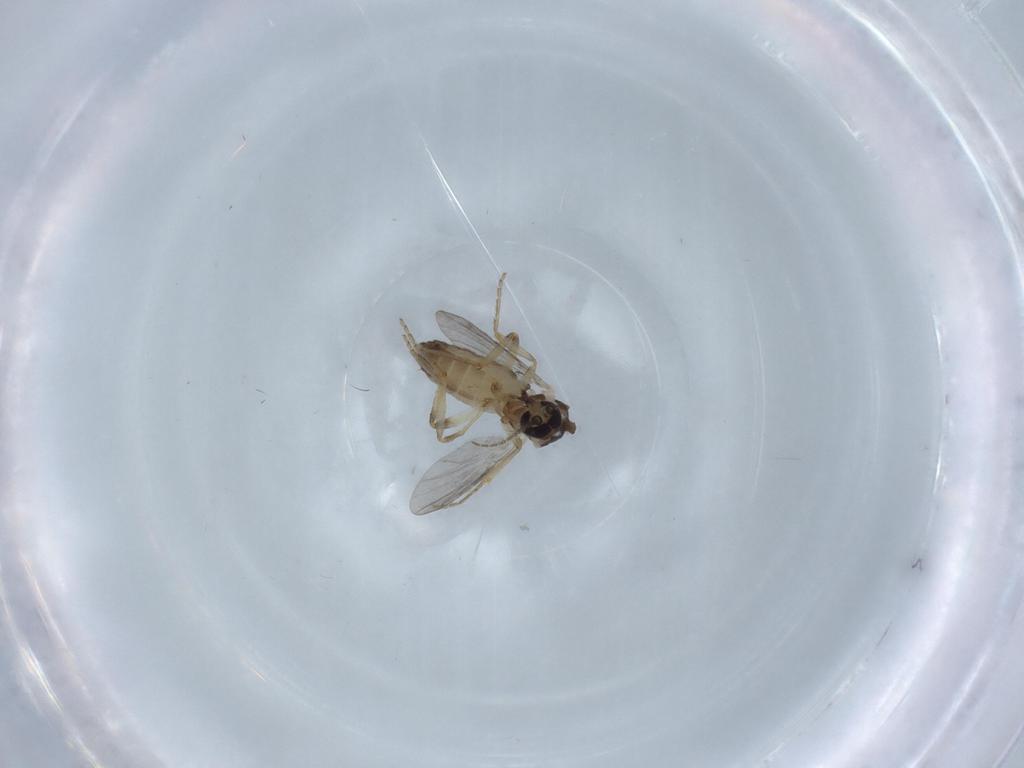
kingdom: Animalia
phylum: Arthropoda
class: Insecta
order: Diptera
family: Ceratopogonidae
